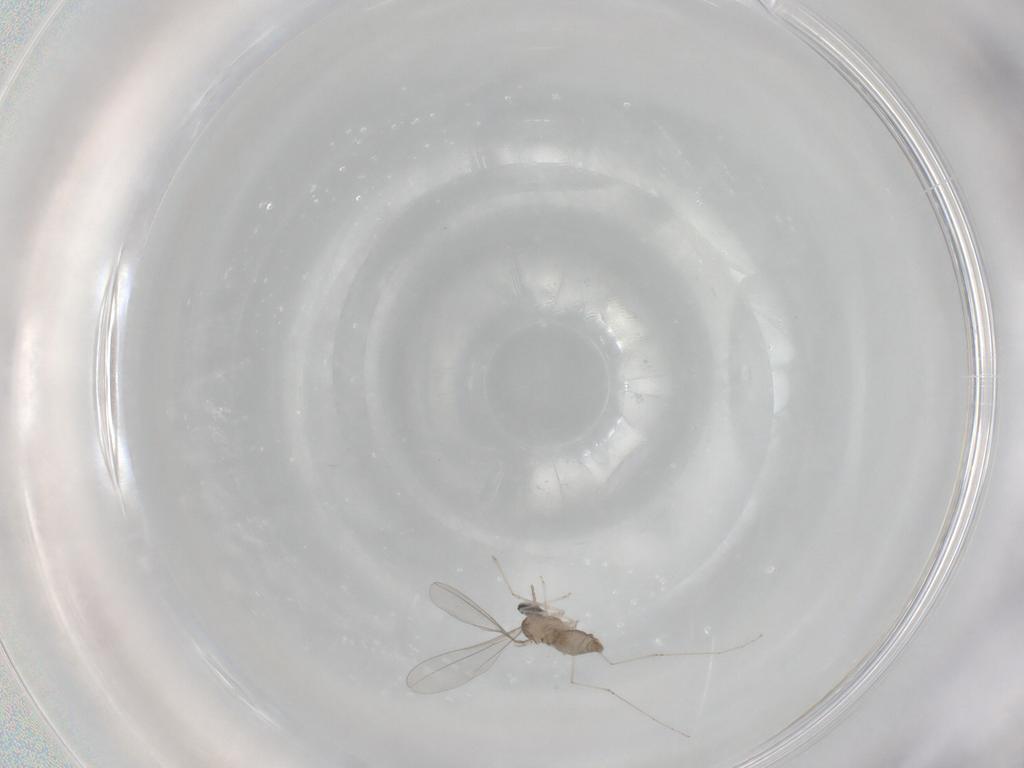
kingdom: Animalia
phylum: Arthropoda
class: Insecta
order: Diptera
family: Cecidomyiidae
